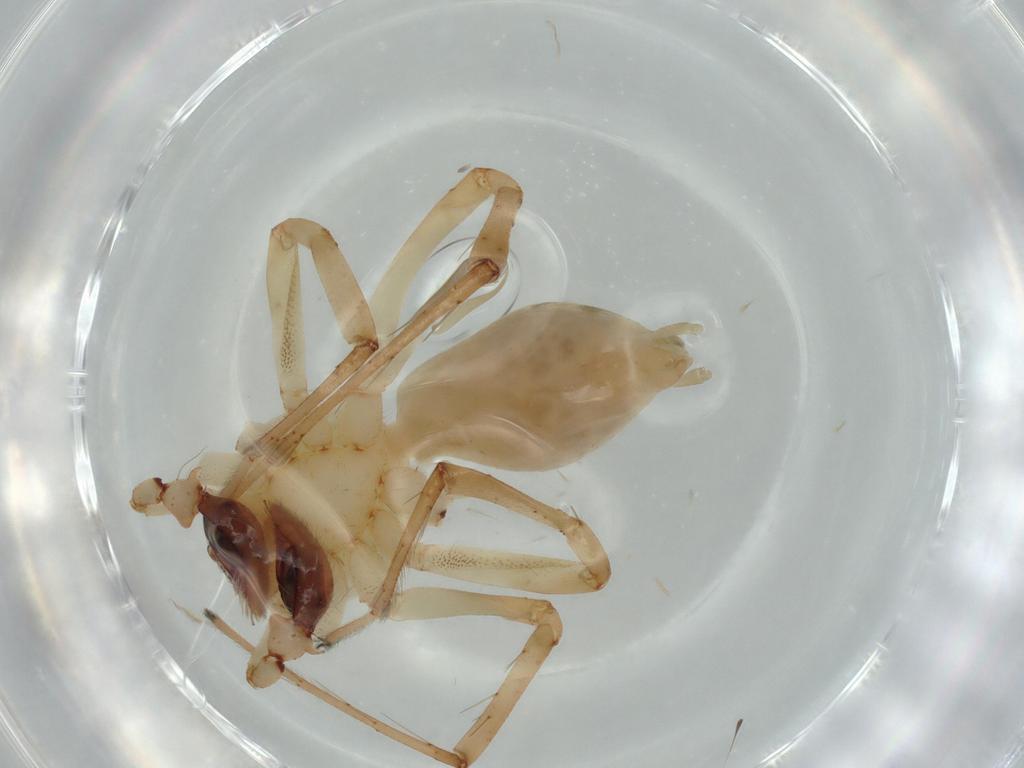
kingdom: Animalia
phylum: Arthropoda
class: Arachnida
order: Araneae
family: Anyphaenidae
